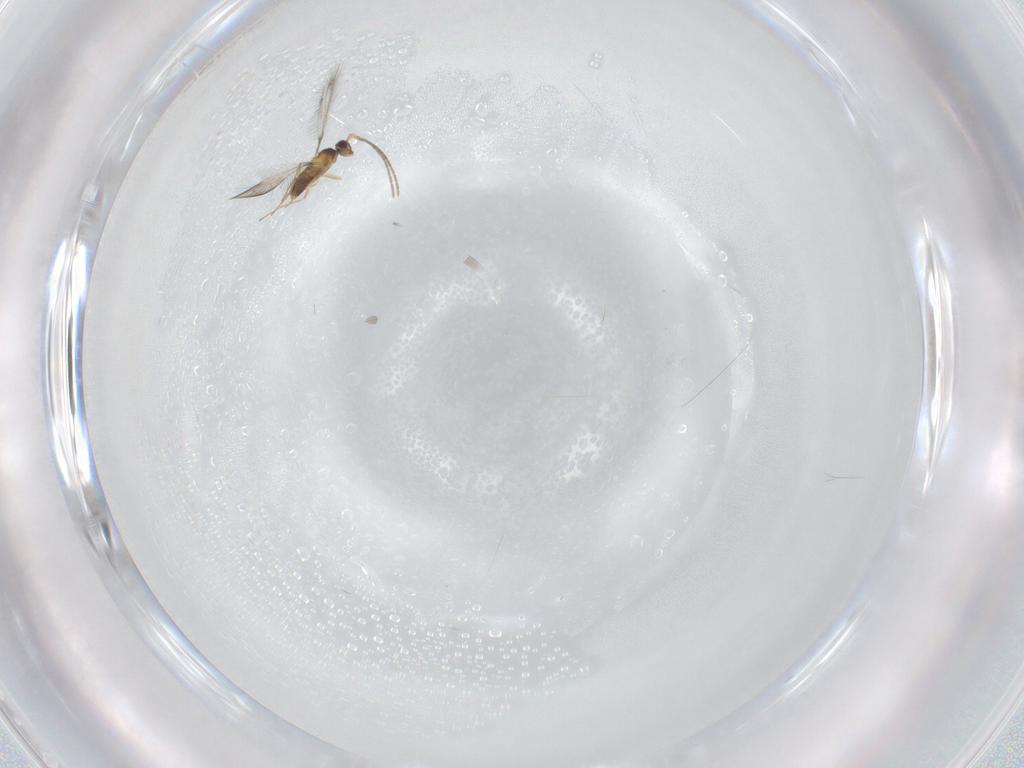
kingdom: Animalia
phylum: Arthropoda
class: Insecta
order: Hymenoptera
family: Mymaridae
